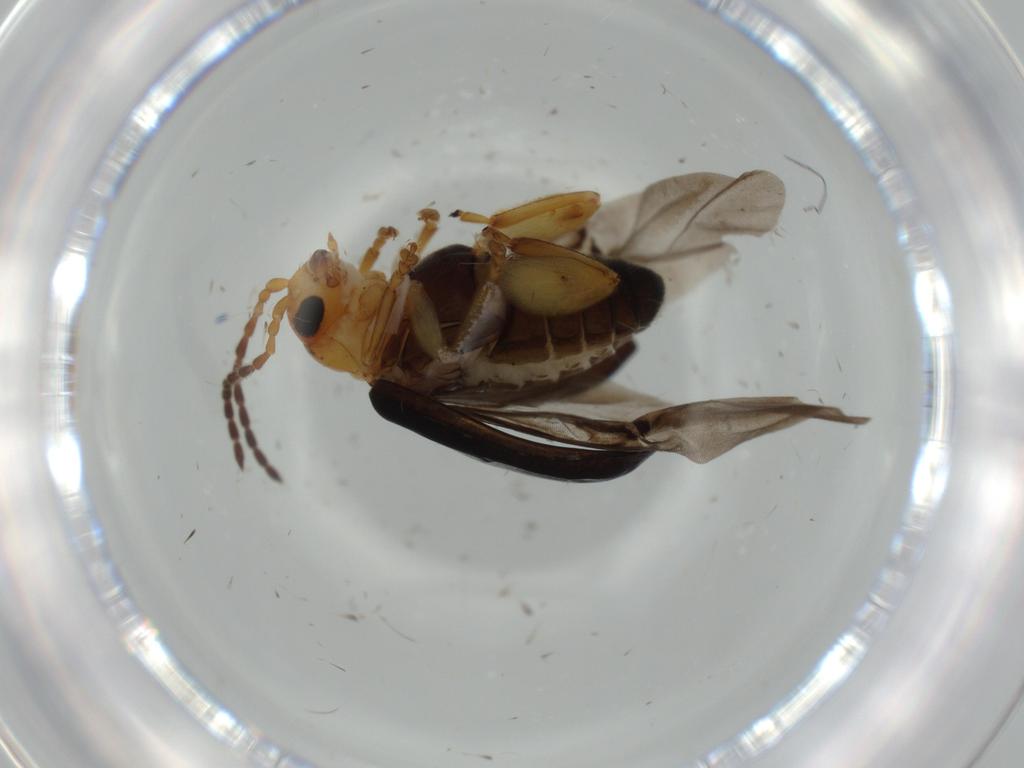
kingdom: Animalia
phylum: Arthropoda
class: Insecta
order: Coleoptera
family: Chrysomelidae
